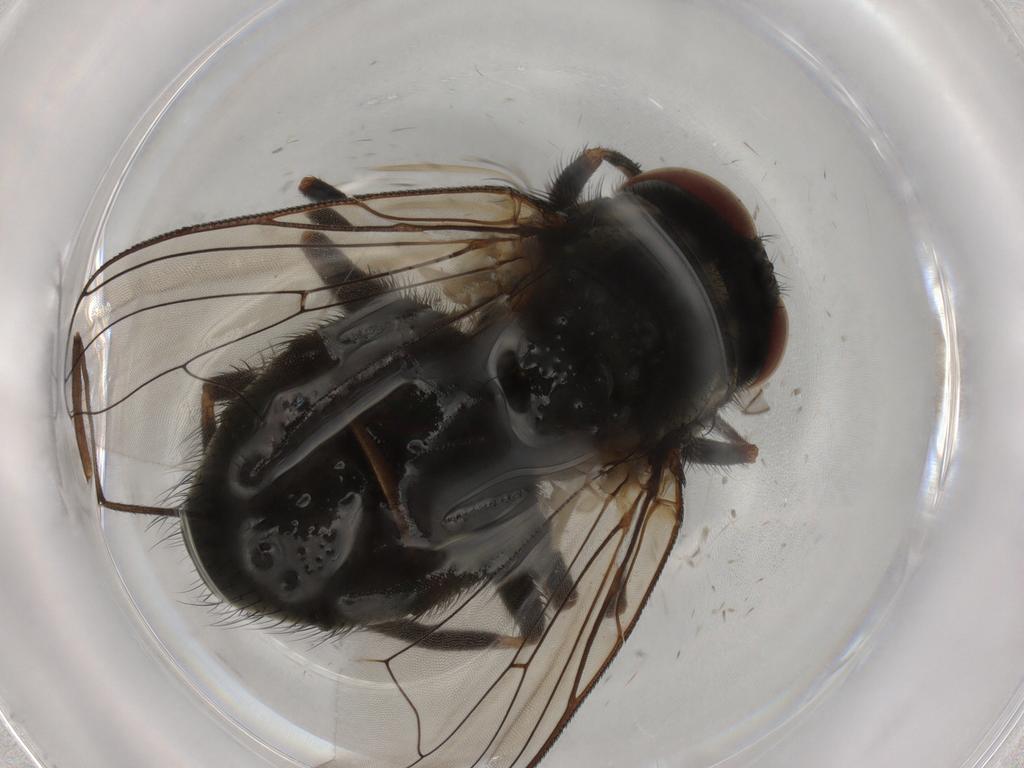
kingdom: Animalia
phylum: Arthropoda
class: Insecta
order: Diptera
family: Muscidae
